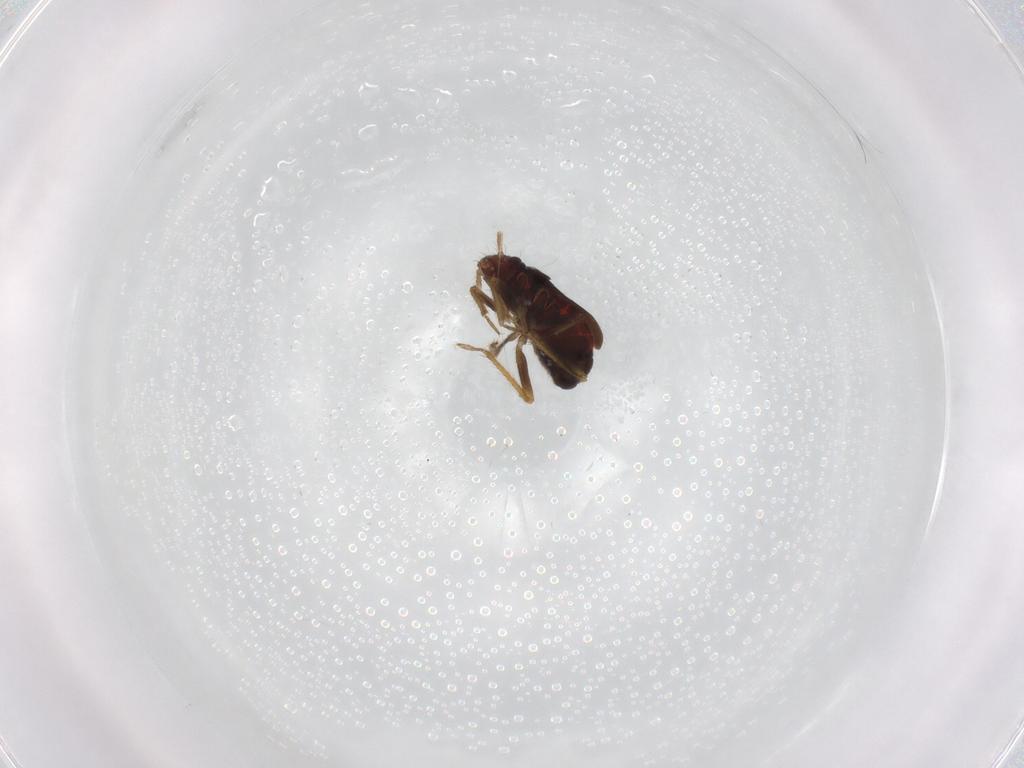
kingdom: Animalia
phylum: Arthropoda
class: Insecta
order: Hemiptera
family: Ceratocombidae
